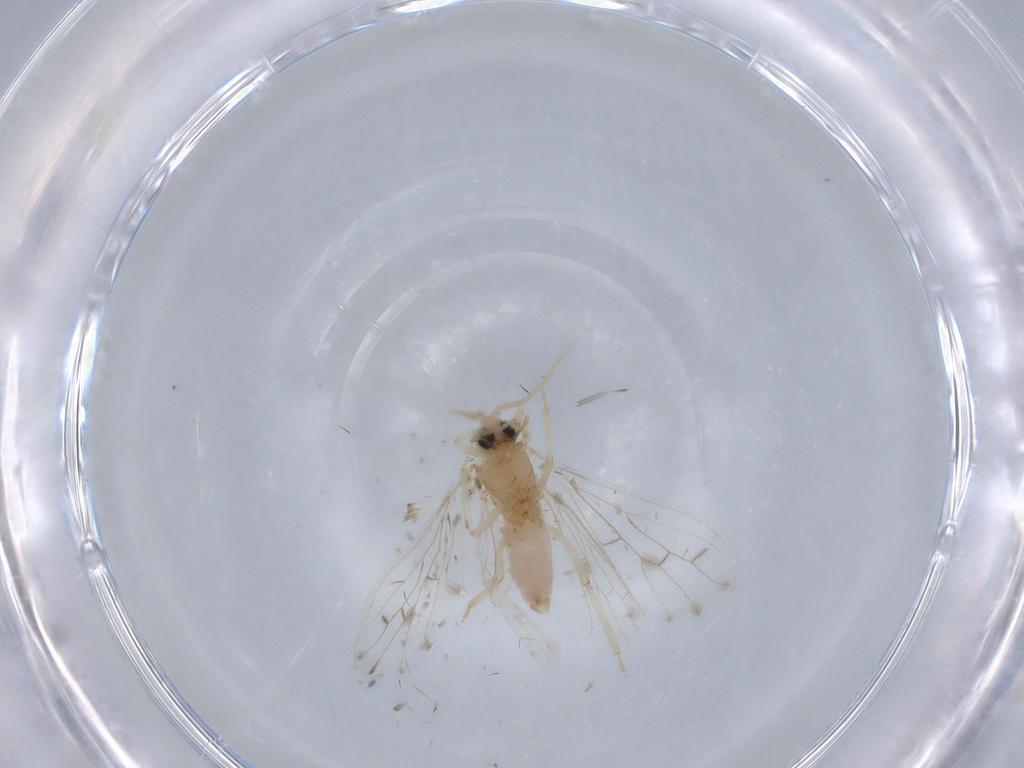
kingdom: Animalia
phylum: Arthropoda
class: Insecta
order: Neuroptera
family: Coniopterygidae
